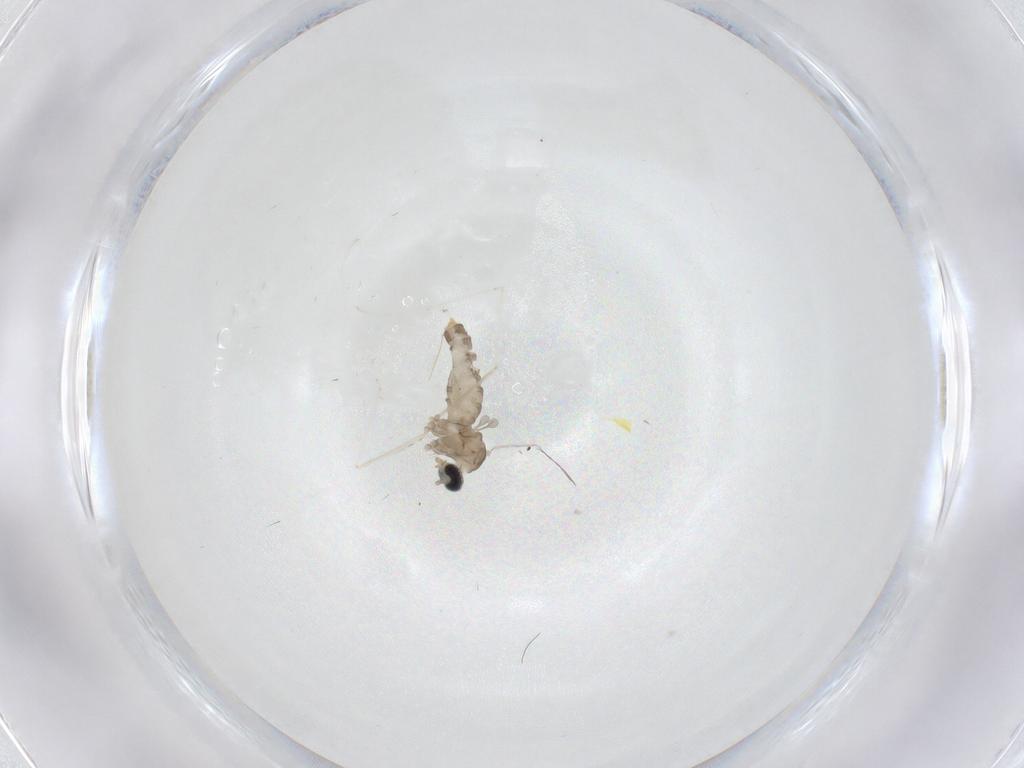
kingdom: Animalia
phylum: Arthropoda
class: Insecta
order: Diptera
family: Cecidomyiidae
